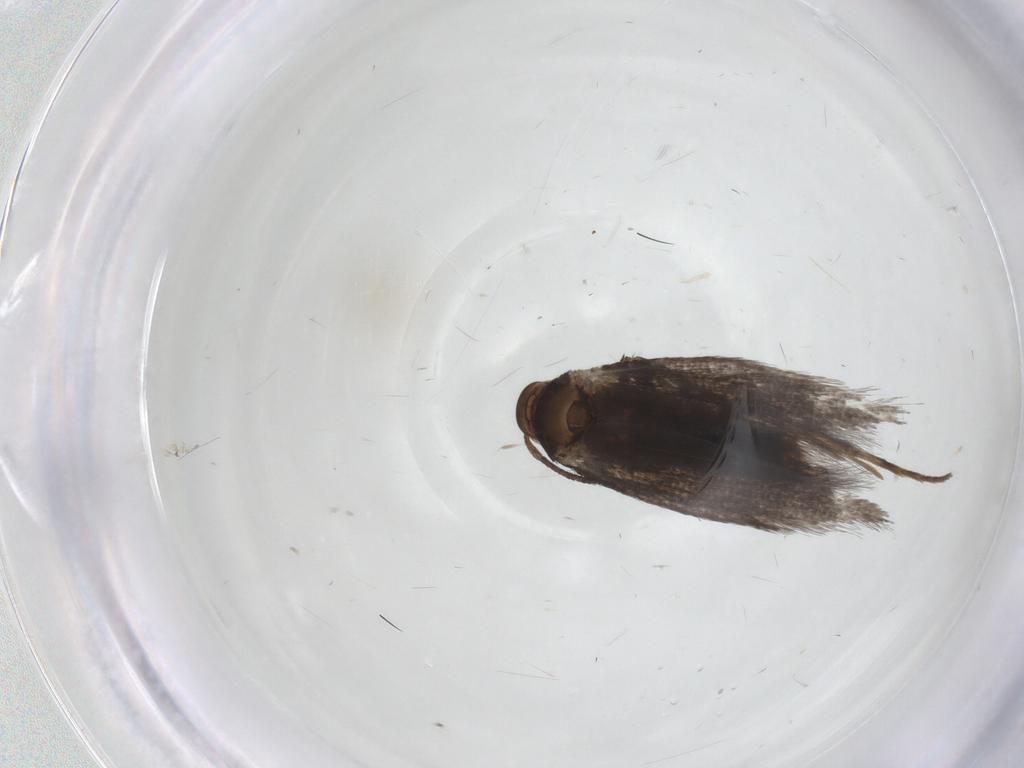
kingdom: Animalia
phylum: Arthropoda
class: Insecta
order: Lepidoptera
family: Elachistidae
